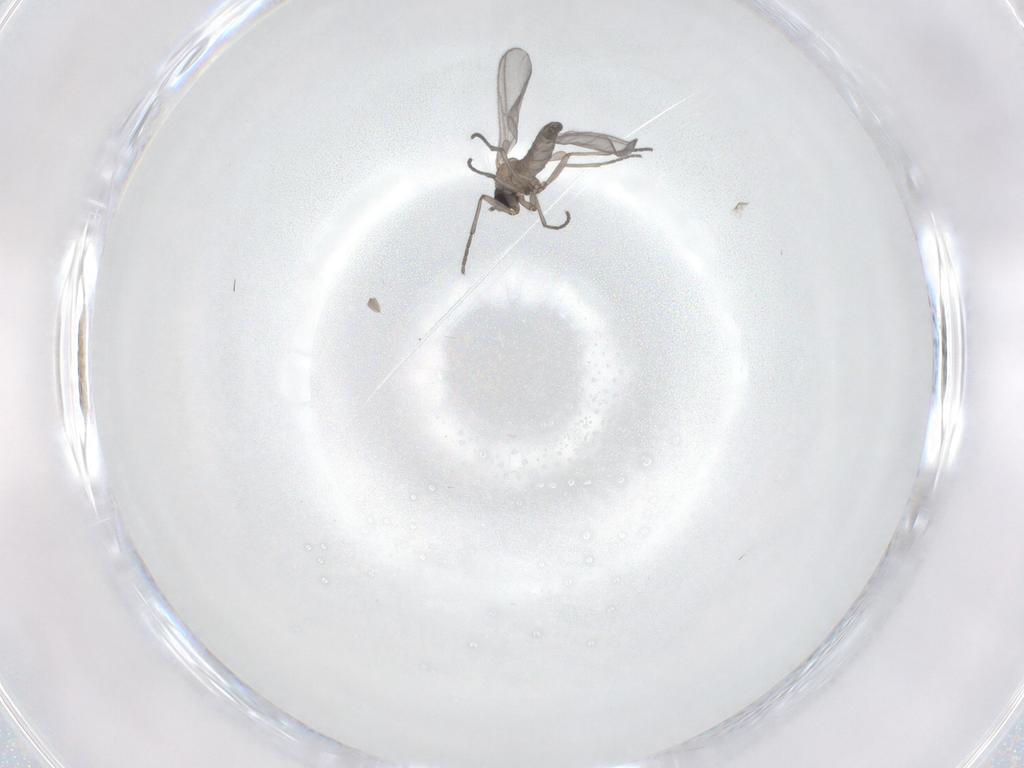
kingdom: Animalia
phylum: Arthropoda
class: Insecta
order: Diptera
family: Sciaridae
